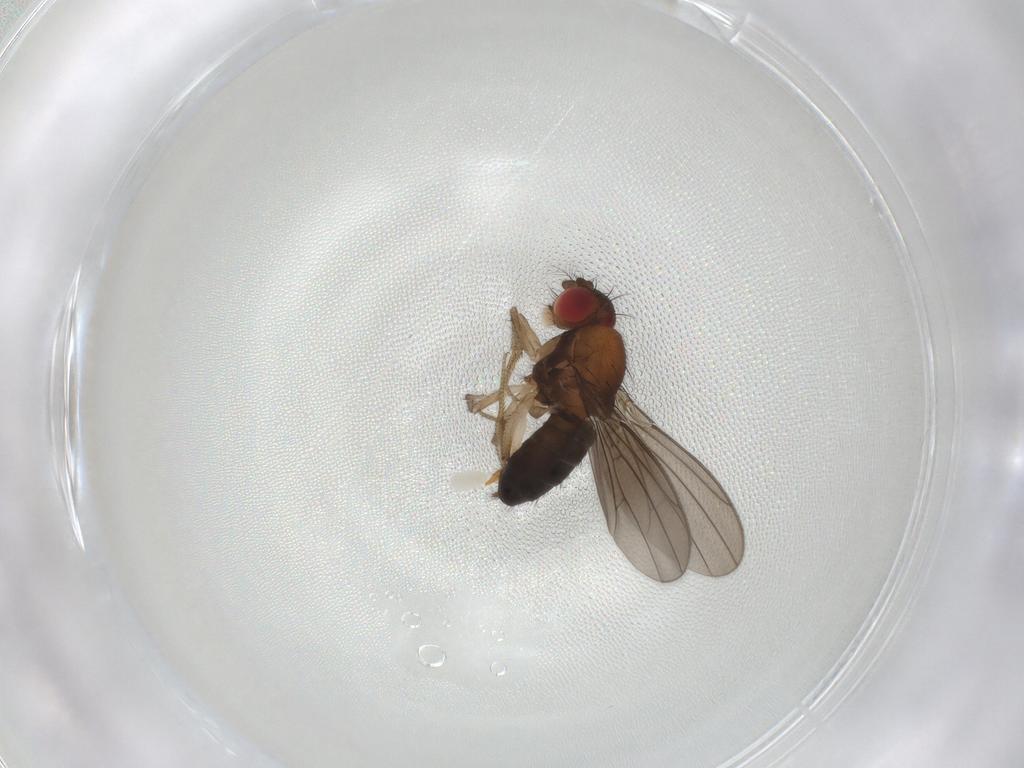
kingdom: Animalia
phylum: Arthropoda
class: Insecta
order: Diptera
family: Drosophilidae
